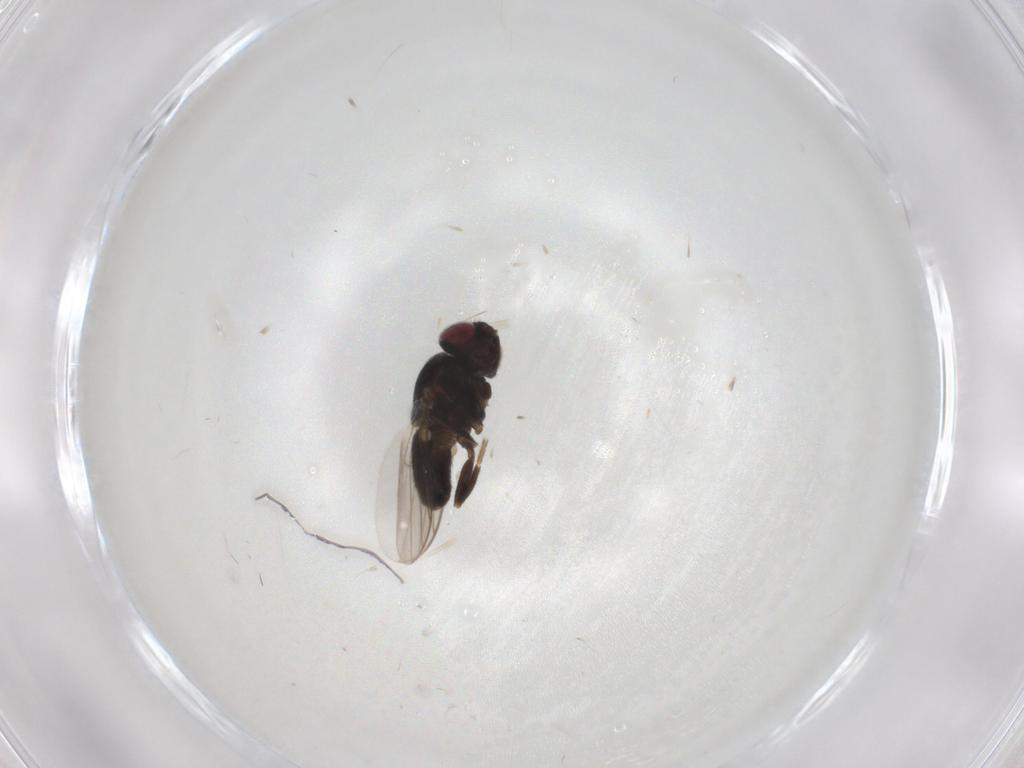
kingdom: Animalia
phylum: Arthropoda
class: Insecta
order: Diptera
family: Chloropidae
